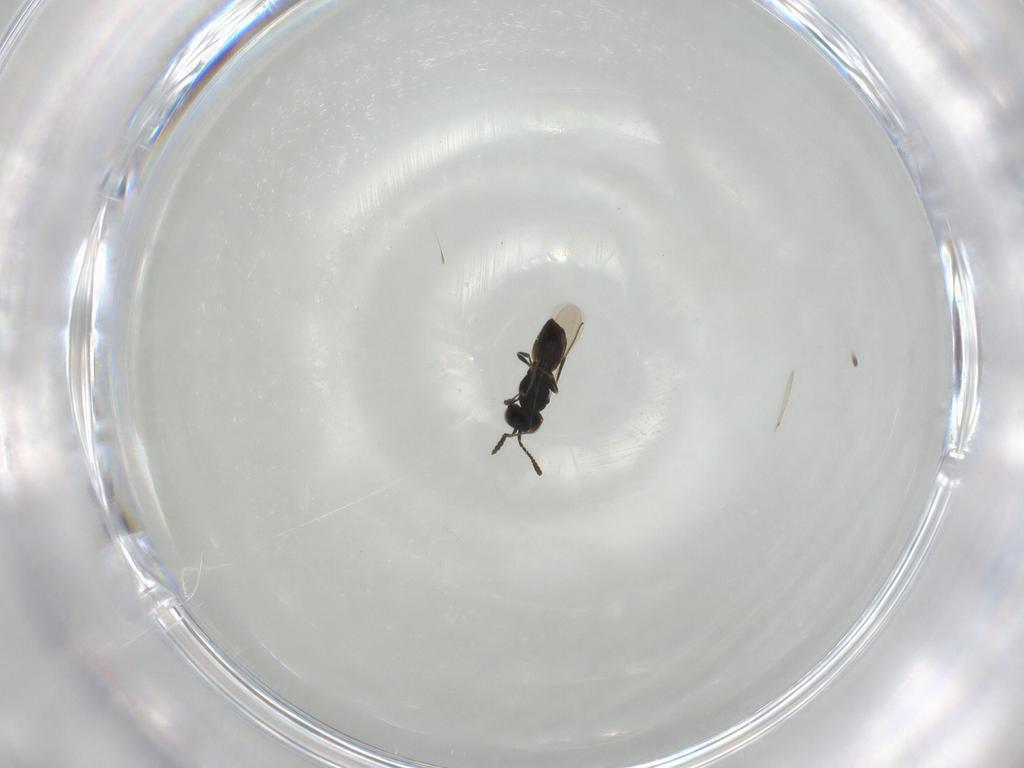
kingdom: Animalia
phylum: Arthropoda
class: Insecta
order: Hymenoptera
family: Scelionidae
